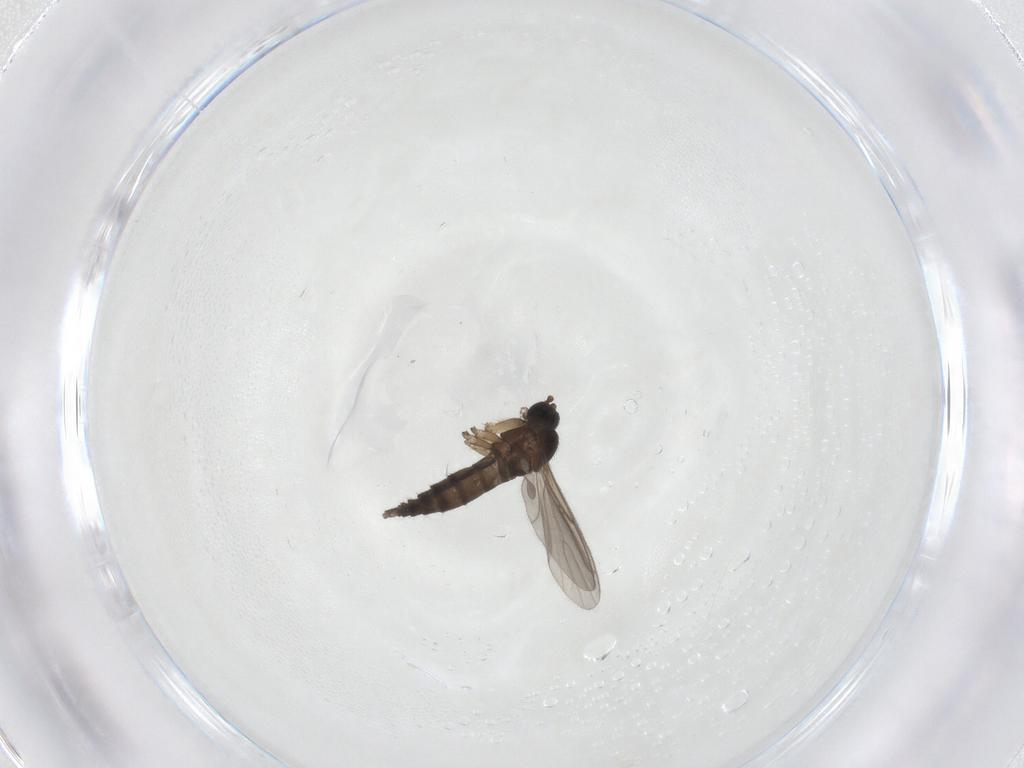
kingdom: Animalia
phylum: Arthropoda
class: Insecta
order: Diptera
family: Sciaridae
